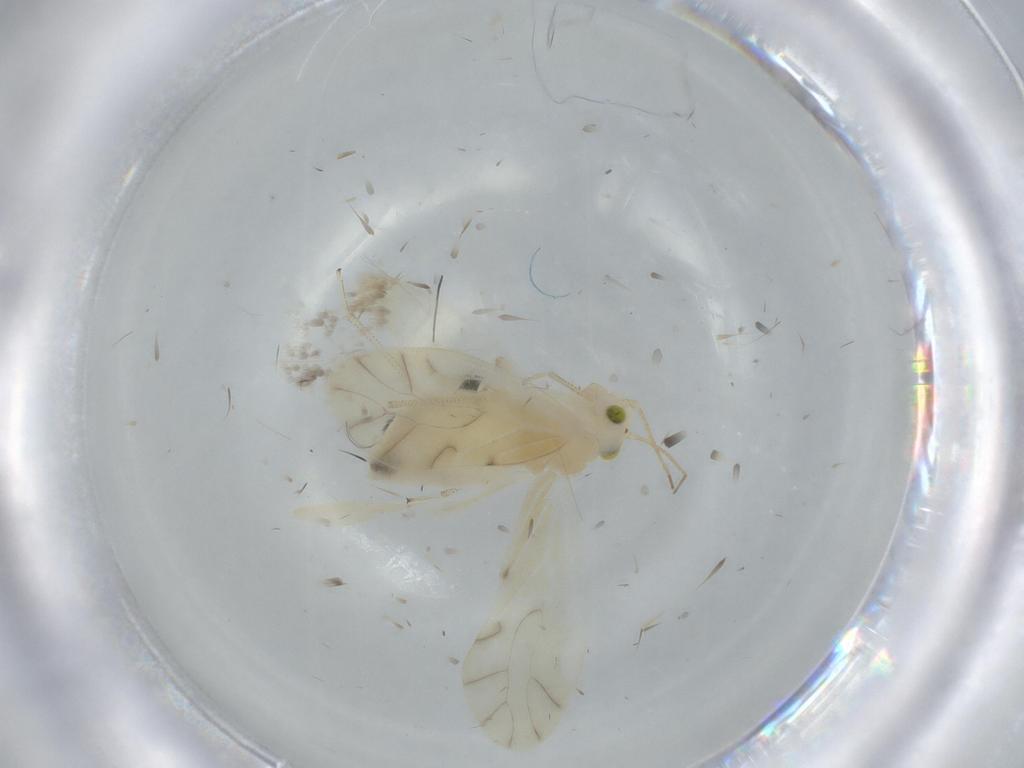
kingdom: Animalia
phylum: Arthropoda
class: Insecta
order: Psocodea
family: Caeciliusidae
